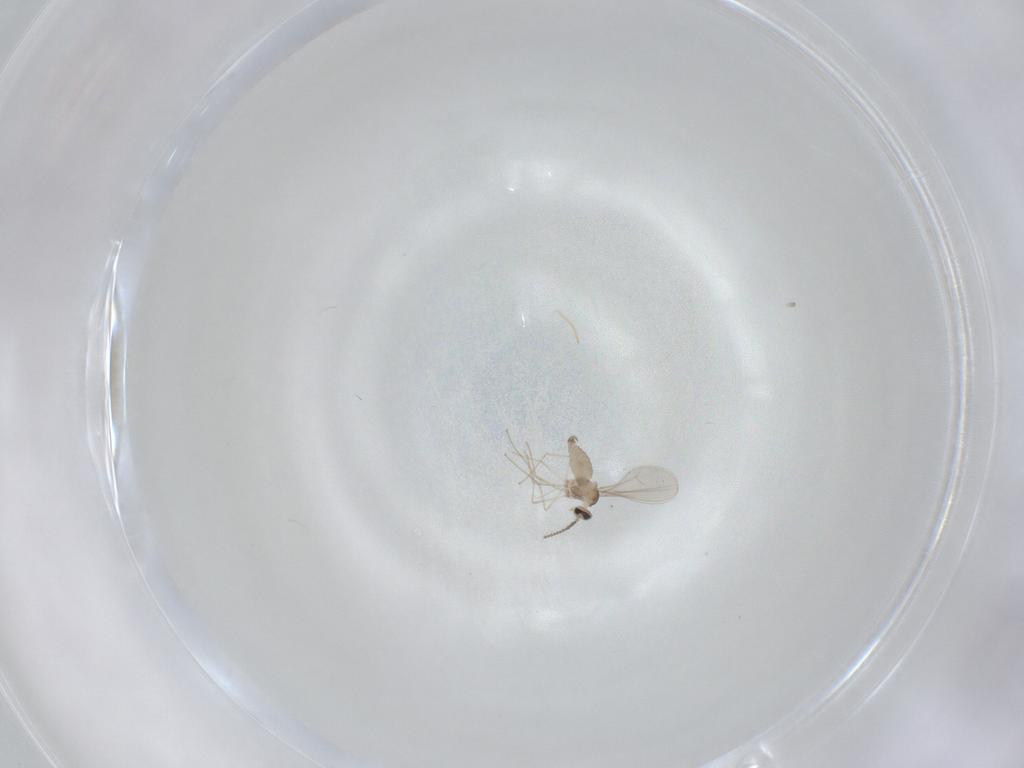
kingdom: Animalia
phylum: Arthropoda
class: Insecta
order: Diptera
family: Cecidomyiidae
